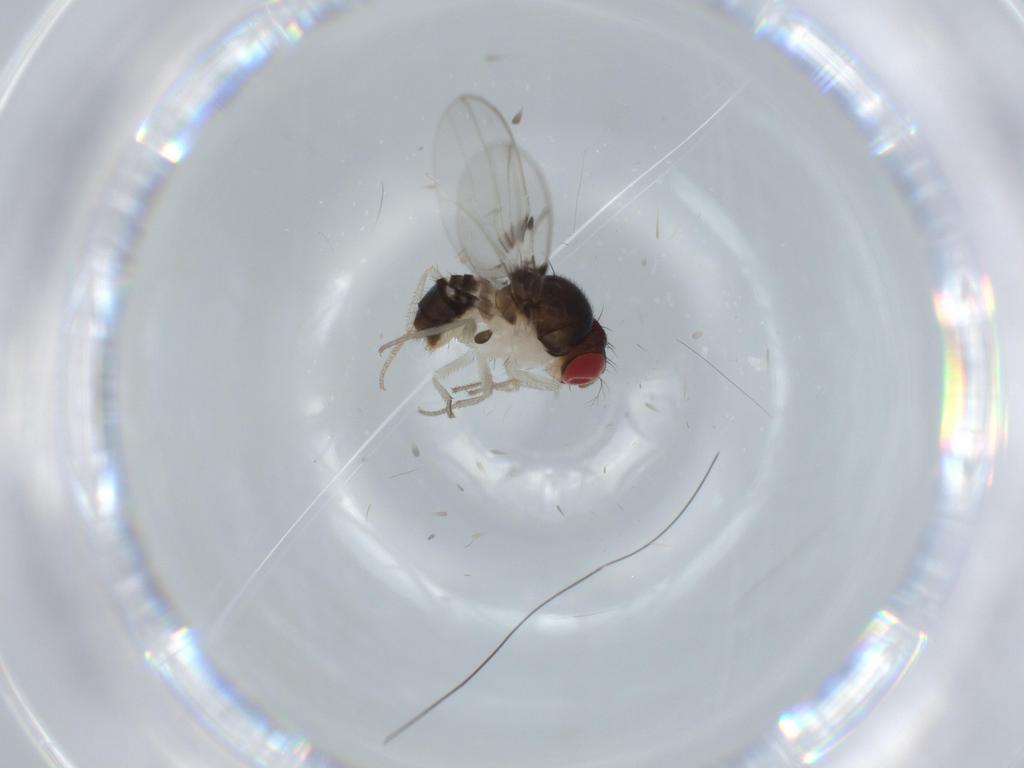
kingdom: Animalia
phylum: Arthropoda
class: Insecta
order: Diptera
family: Drosophilidae
